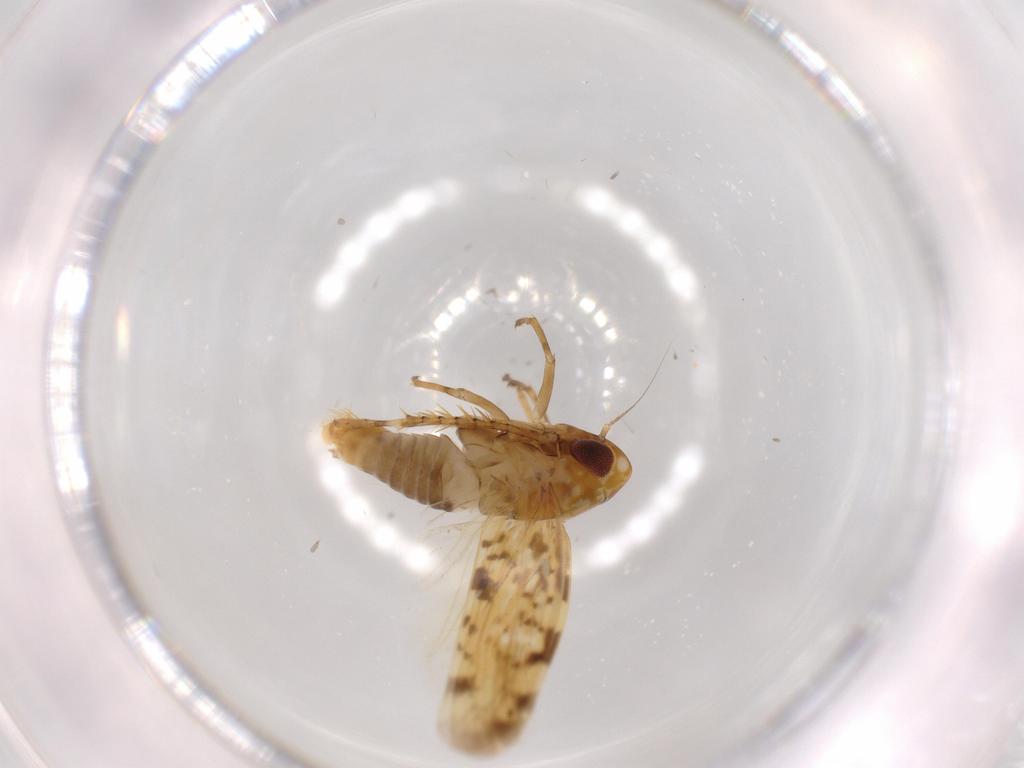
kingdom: Animalia
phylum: Arthropoda
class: Insecta
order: Hemiptera
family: Cicadellidae
